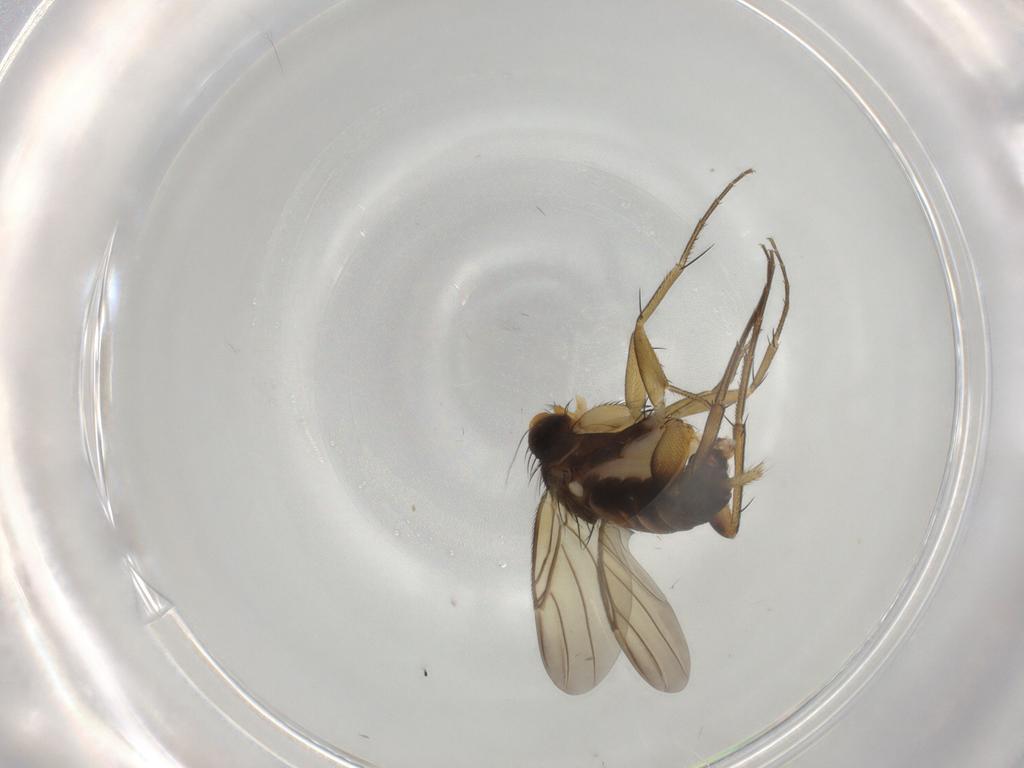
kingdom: Animalia
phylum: Arthropoda
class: Insecta
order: Diptera
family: Phoridae
